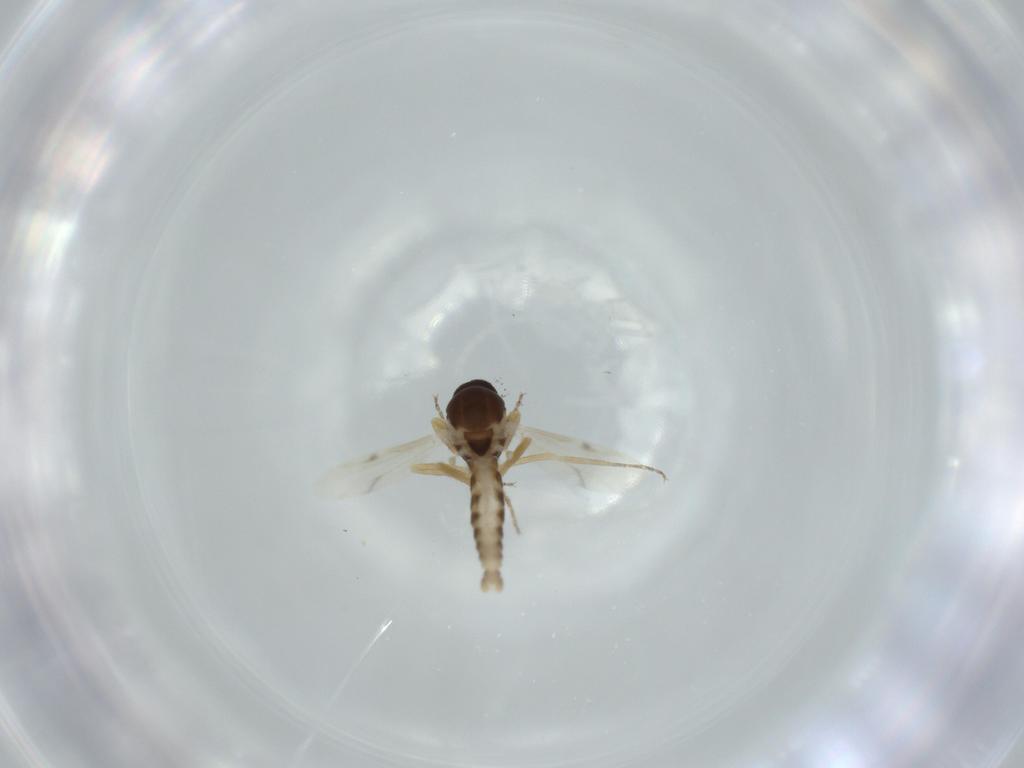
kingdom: Animalia
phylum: Arthropoda
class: Insecta
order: Diptera
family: Ceratopogonidae
